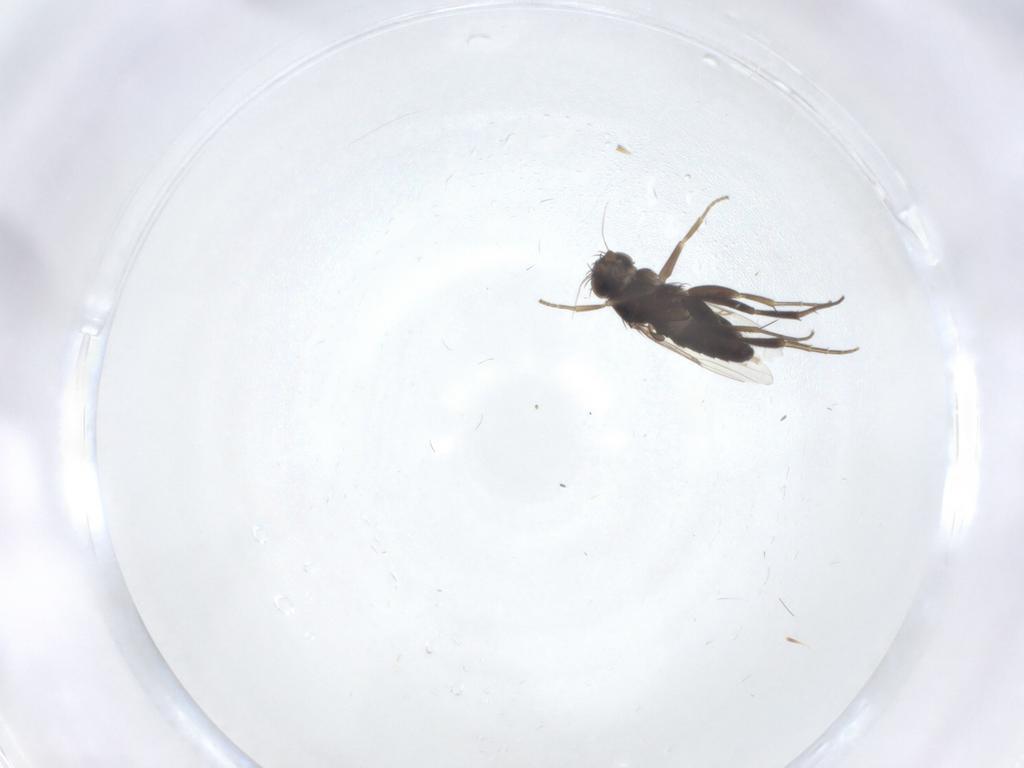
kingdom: Animalia
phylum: Arthropoda
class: Insecta
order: Diptera
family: Phoridae
